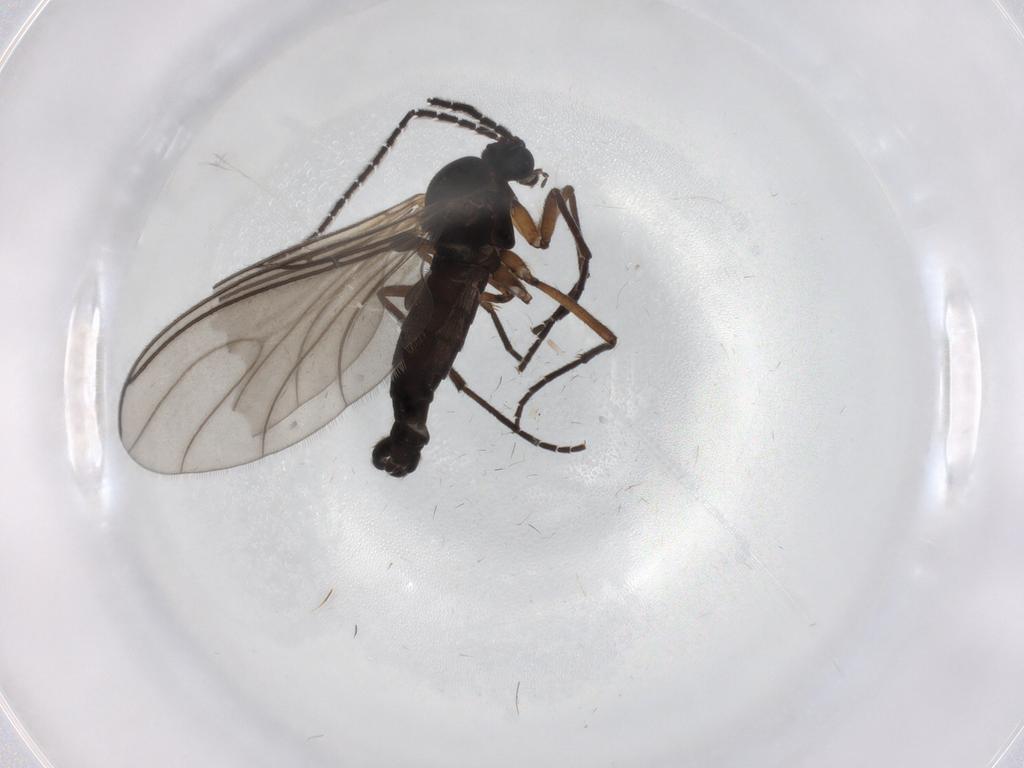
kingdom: Animalia
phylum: Arthropoda
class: Insecta
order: Diptera
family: Sciaridae
